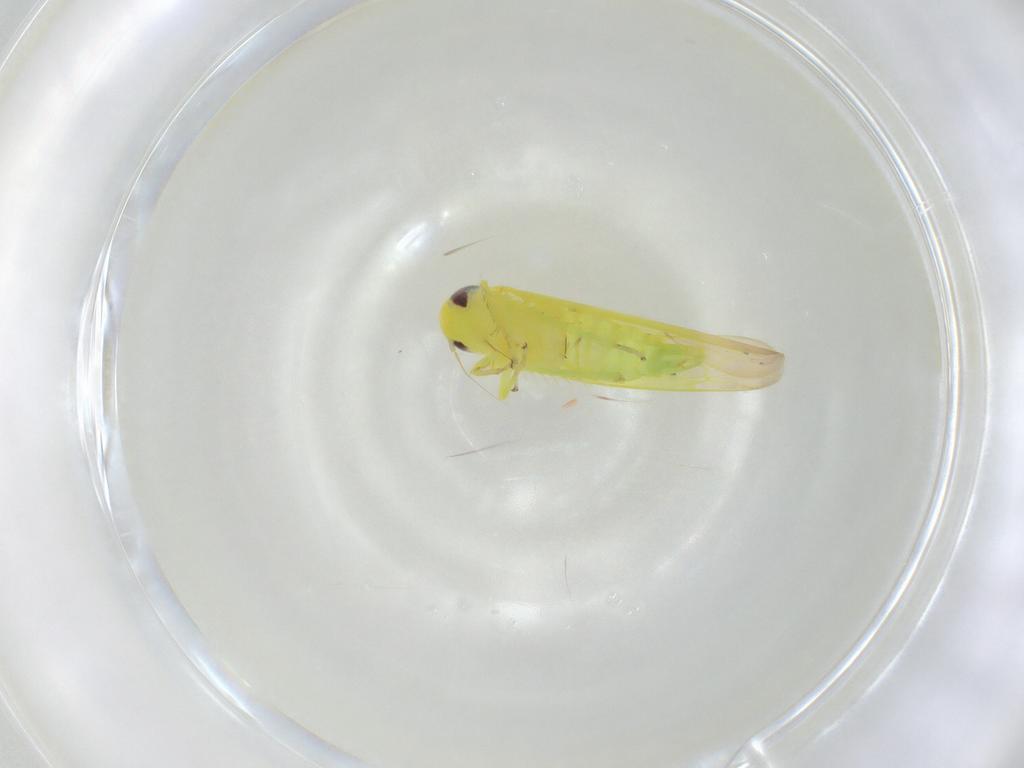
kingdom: Animalia
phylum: Arthropoda
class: Insecta
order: Hemiptera
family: Cicadellidae
